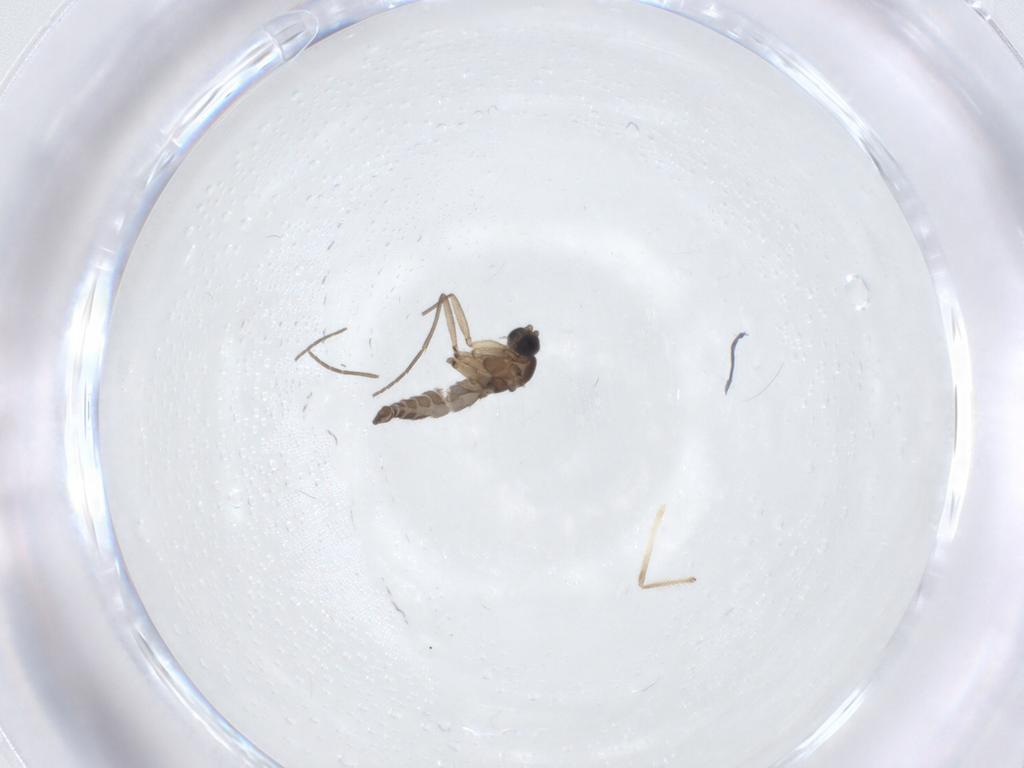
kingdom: Animalia
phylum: Arthropoda
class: Insecta
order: Diptera
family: Sciaridae
